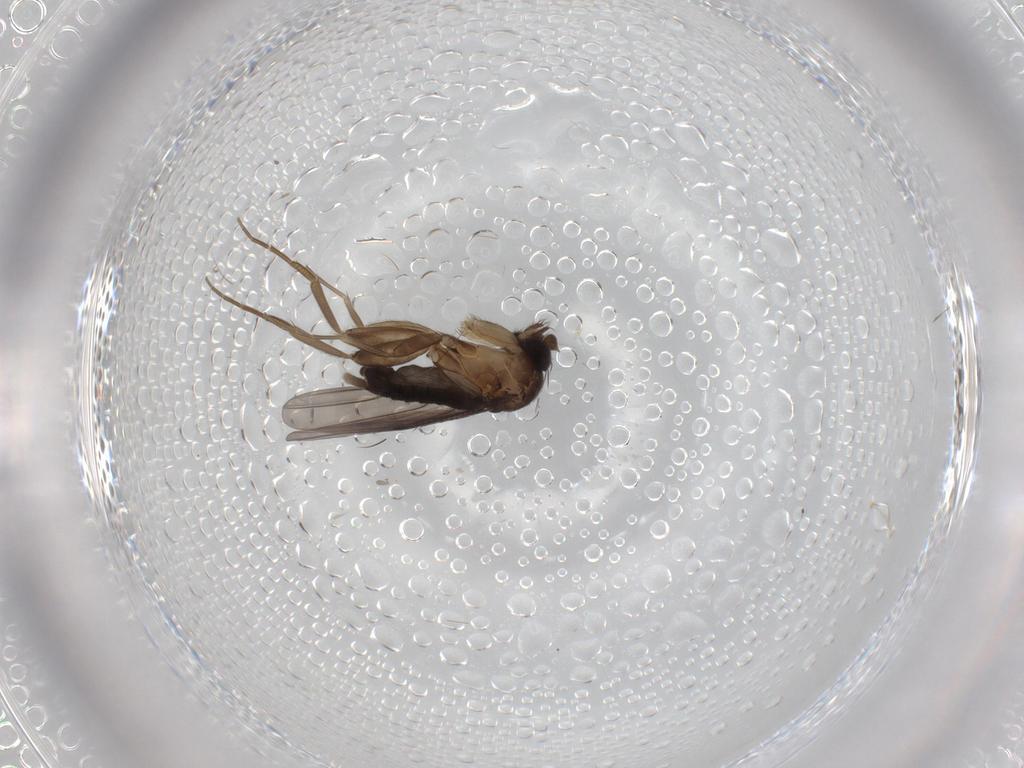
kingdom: Animalia
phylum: Arthropoda
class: Insecta
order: Diptera
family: Phoridae
